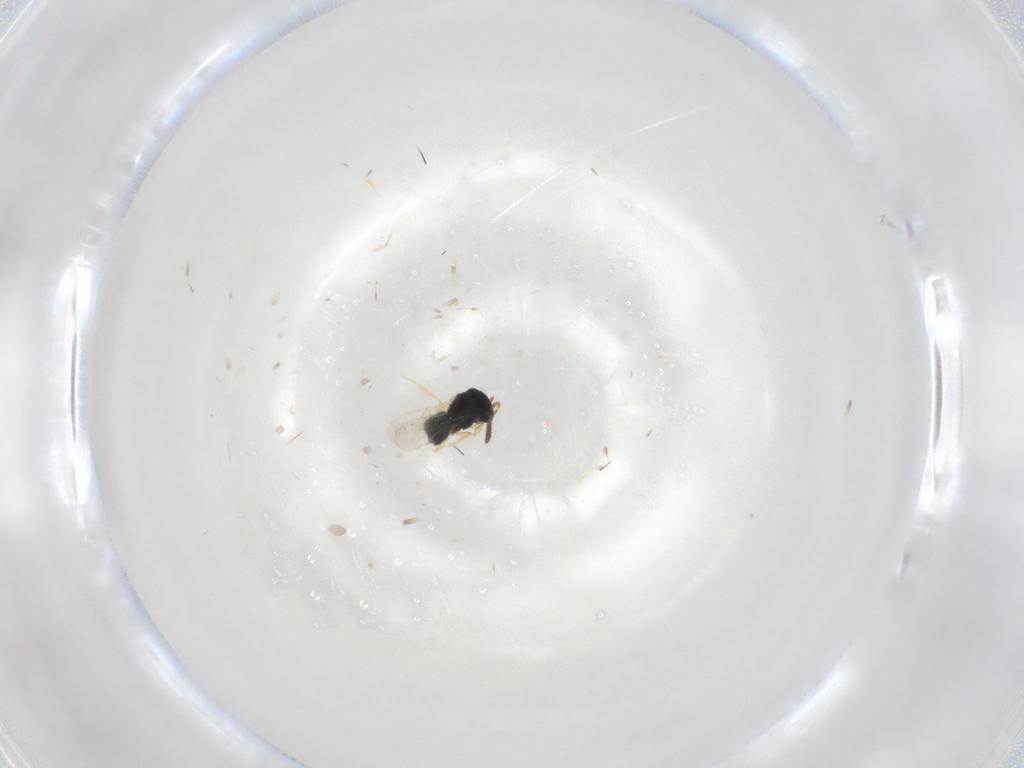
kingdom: Animalia
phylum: Arthropoda
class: Insecta
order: Hymenoptera
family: Scelionidae
